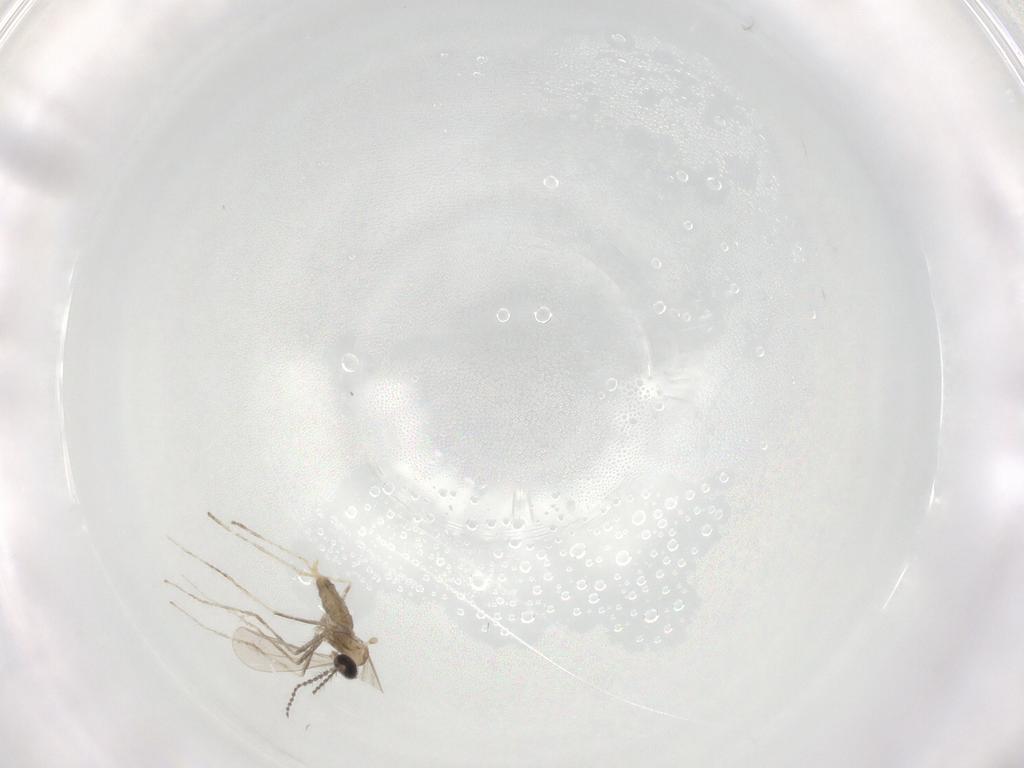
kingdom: Animalia
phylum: Arthropoda
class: Insecta
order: Diptera
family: Cecidomyiidae
